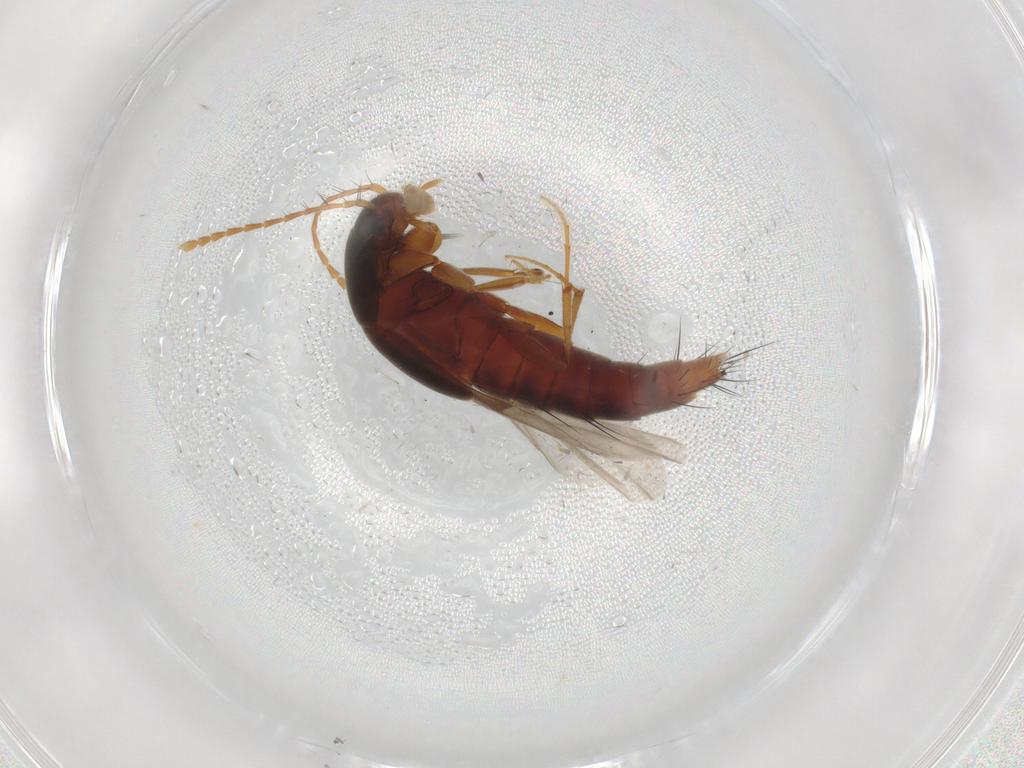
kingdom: Animalia
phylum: Arthropoda
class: Insecta
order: Coleoptera
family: Staphylinidae
